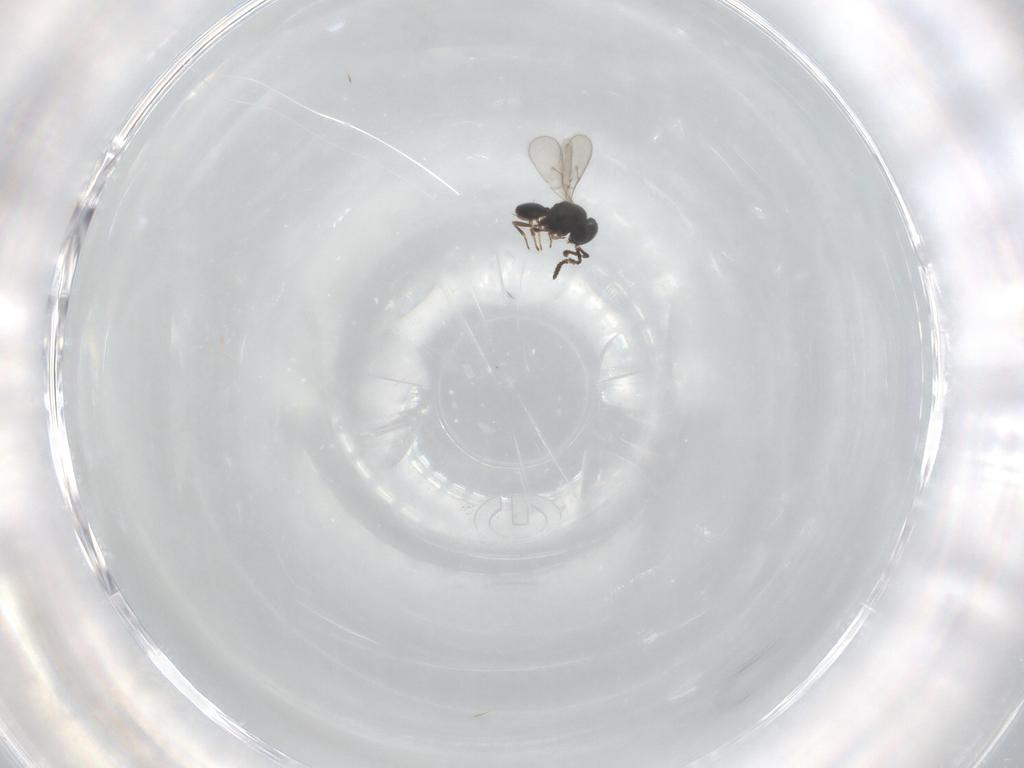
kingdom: Animalia
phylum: Arthropoda
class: Insecta
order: Hymenoptera
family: Scelionidae
